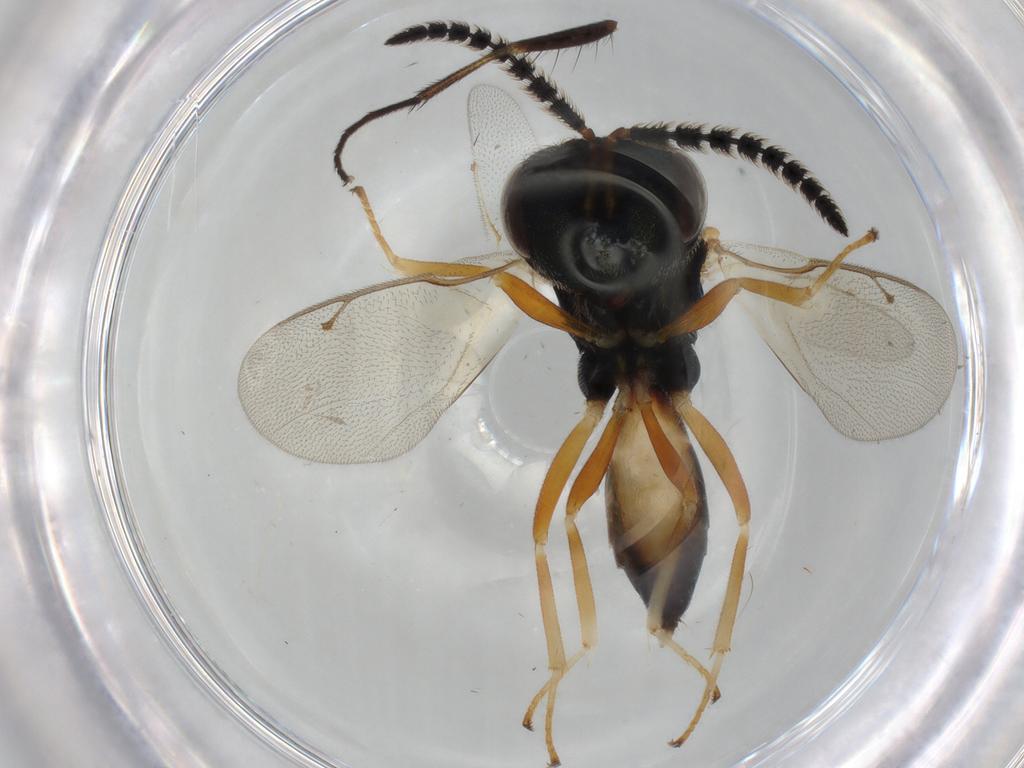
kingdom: Animalia
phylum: Arthropoda
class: Insecta
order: Hymenoptera
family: Pteromalidae
